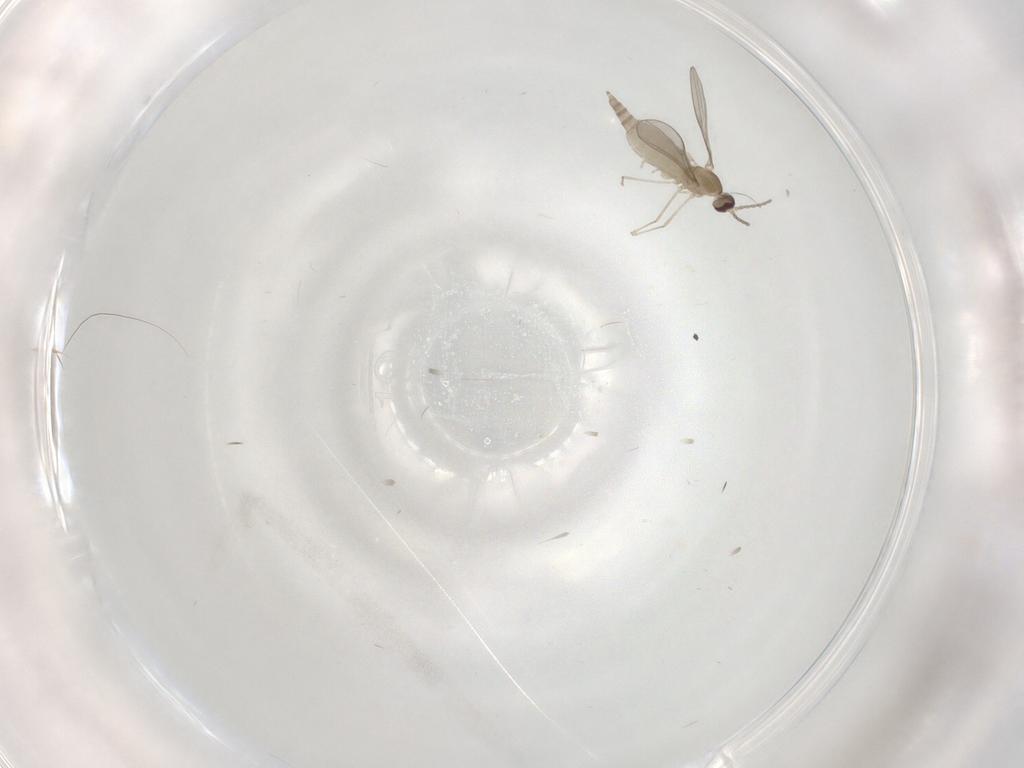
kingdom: Animalia
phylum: Arthropoda
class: Insecta
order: Diptera
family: Cecidomyiidae
